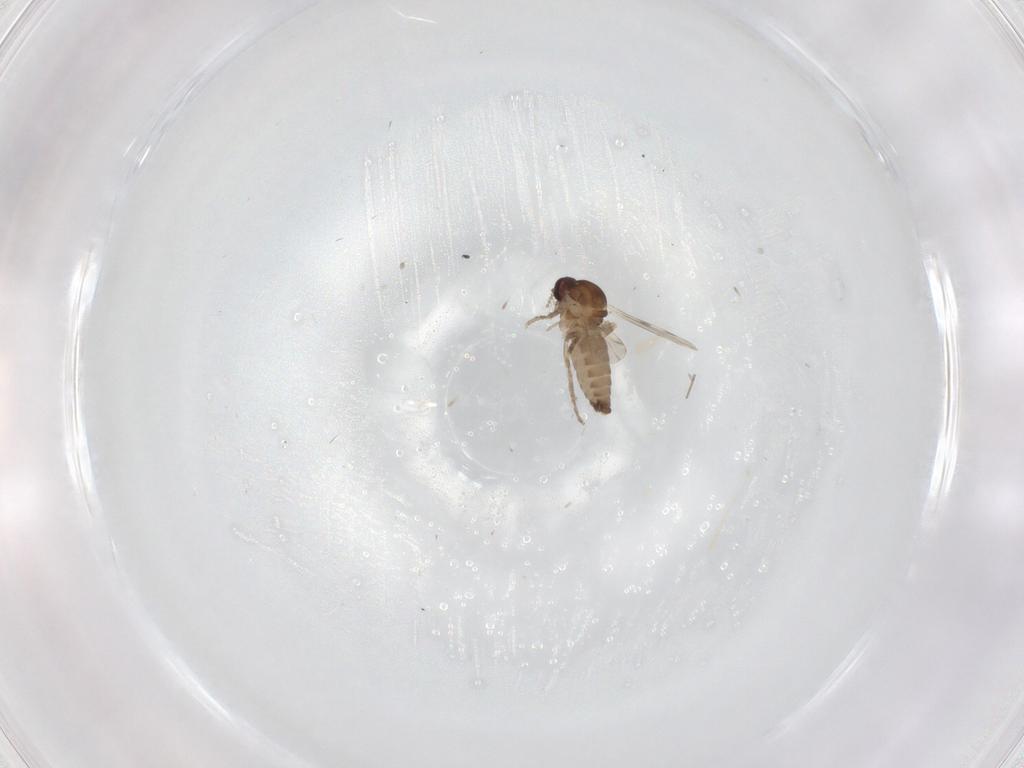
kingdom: Animalia
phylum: Arthropoda
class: Insecta
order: Diptera
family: Ceratopogonidae
